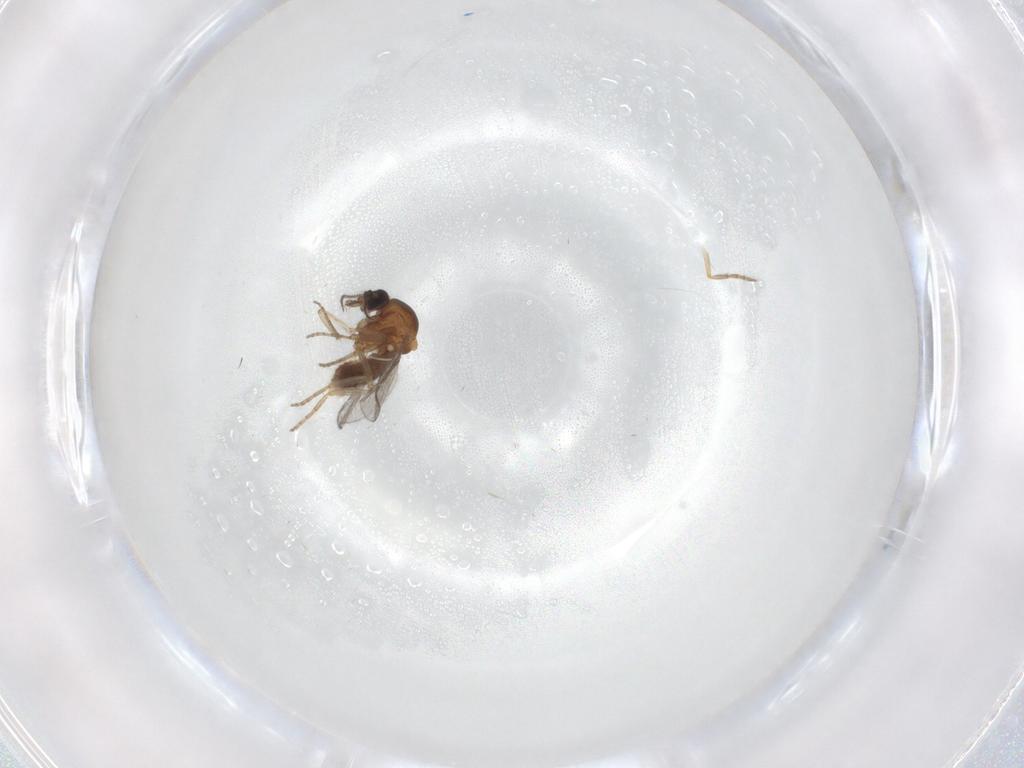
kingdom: Animalia
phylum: Arthropoda
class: Insecta
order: Diptera
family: Ceratopogonidae
